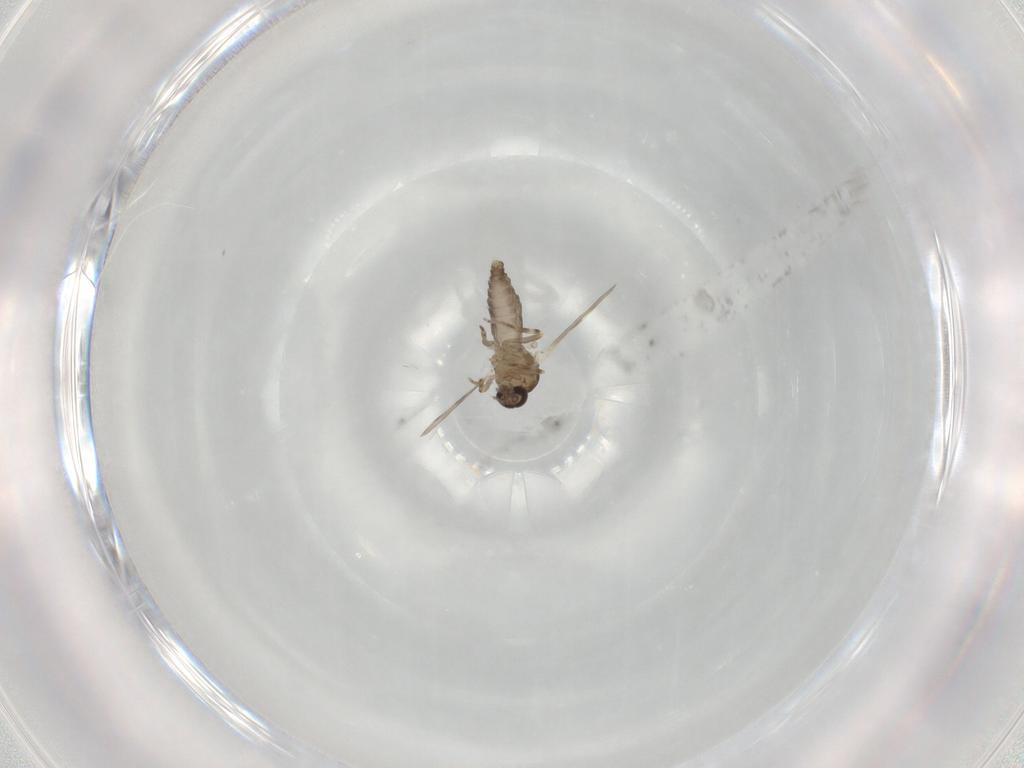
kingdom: Animalia
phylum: Arthropoda
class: Insecta
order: Diptera
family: Ceratopogonidae
